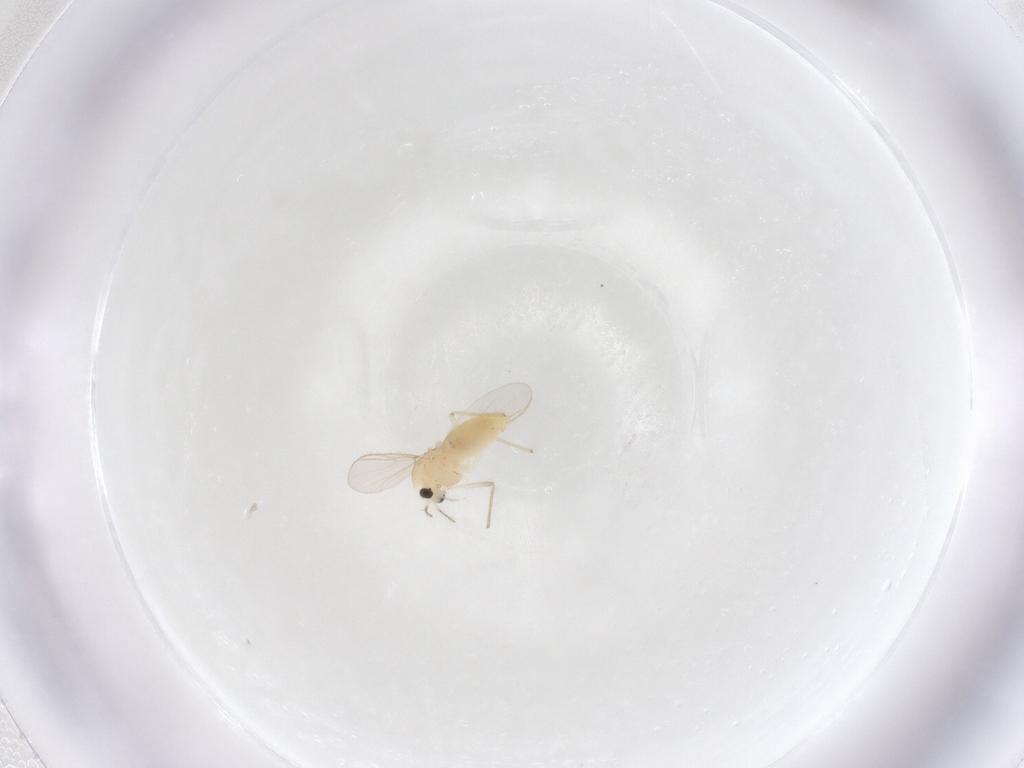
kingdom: Animalia
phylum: Arthropoda
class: Insecta
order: Diptera
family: Chironomidae
